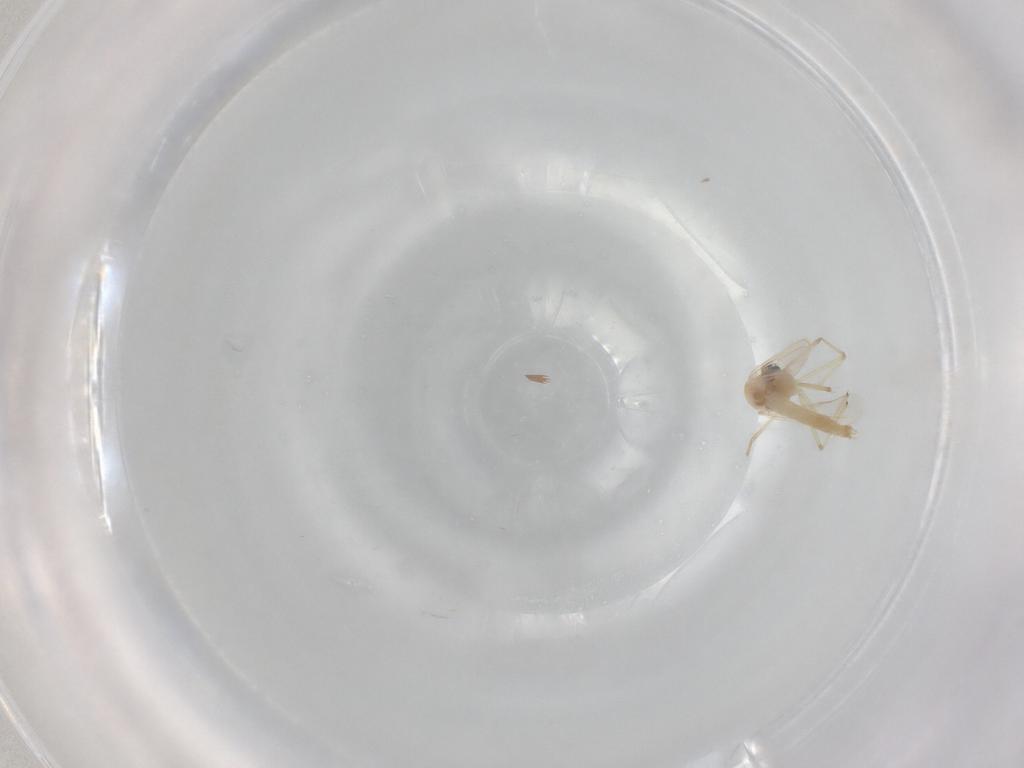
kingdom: Animalia
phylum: Arthropoda
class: Insecta
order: Diptera
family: Chironomidae
